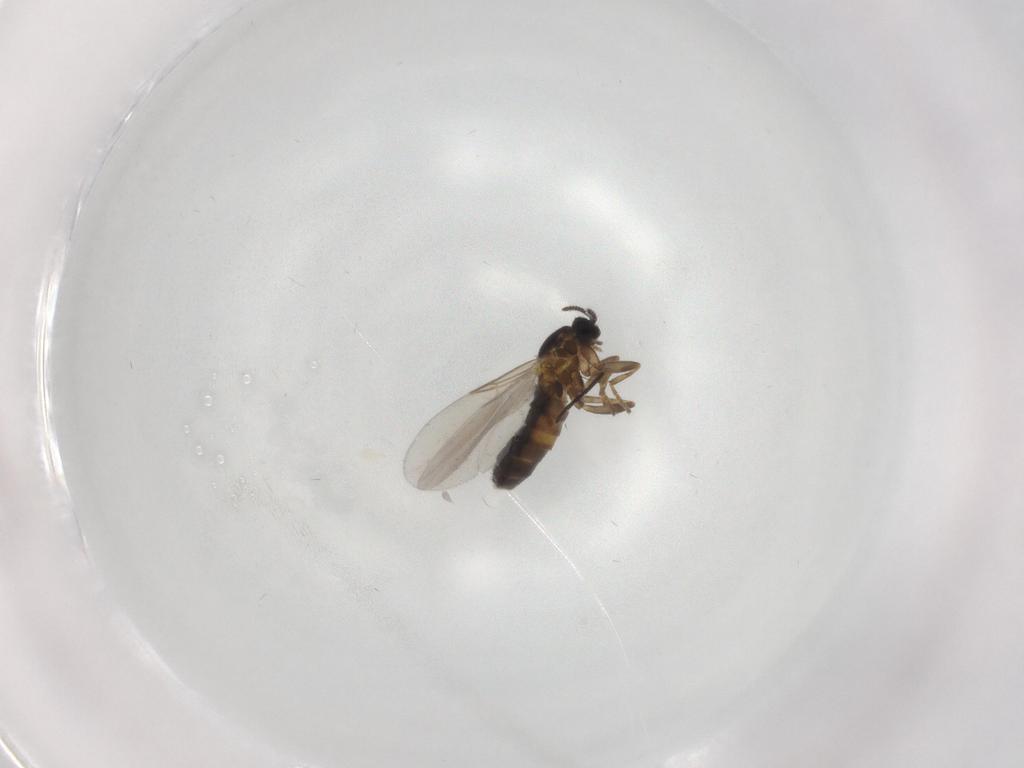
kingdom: Animalia
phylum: Arthropoda
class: Insecta
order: Diptera
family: Scatopsidae
